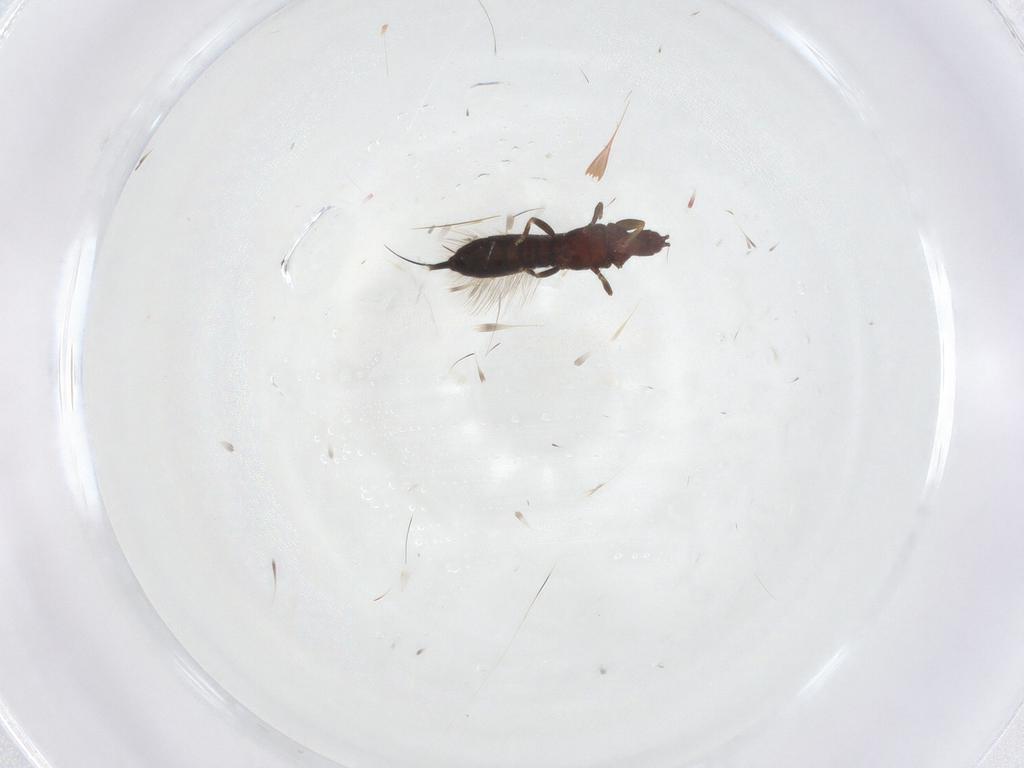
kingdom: Animalia
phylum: Arthropoda
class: Insecta
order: Thysanoptera
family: Phlaeothripidae
